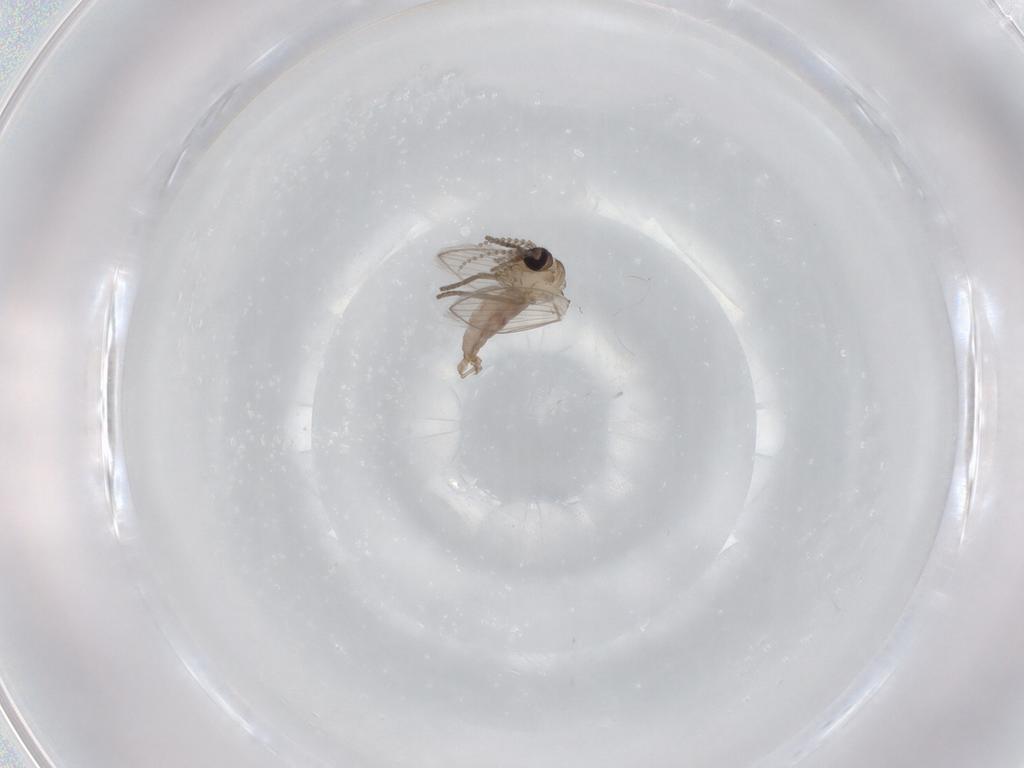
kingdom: Animalia
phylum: Arthropoda
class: Insecta
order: Diptera
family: Psychodidae
